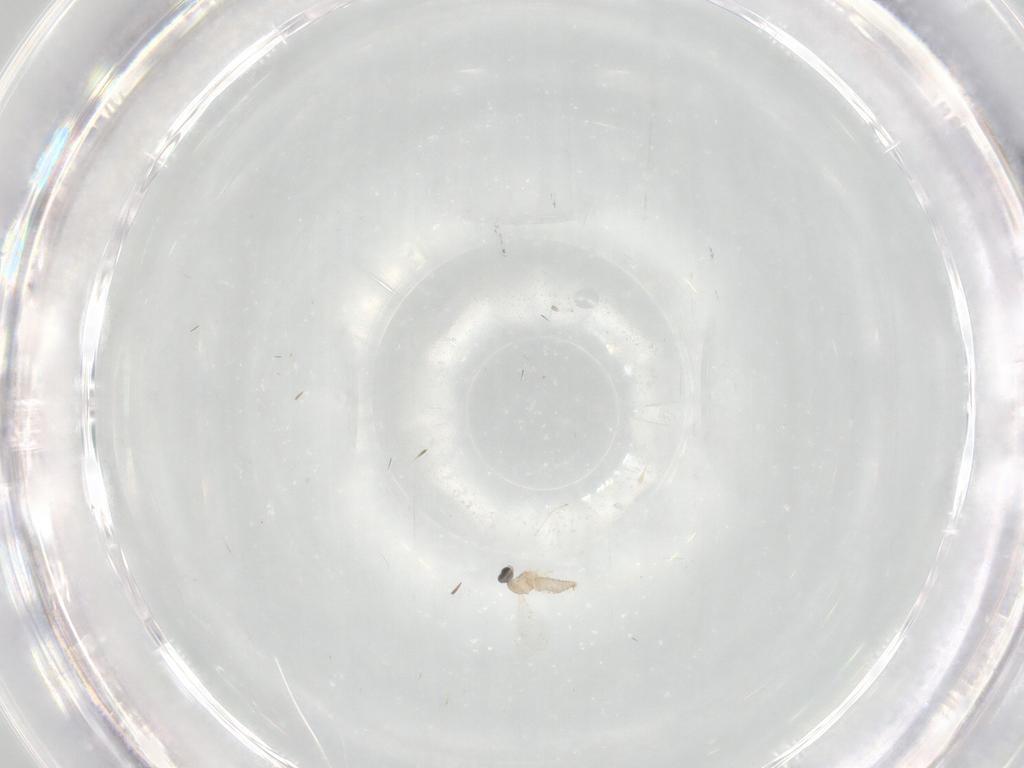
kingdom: Animalia
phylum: Arthropoda
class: Insecta
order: Diptera
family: Cecidomyiidae
